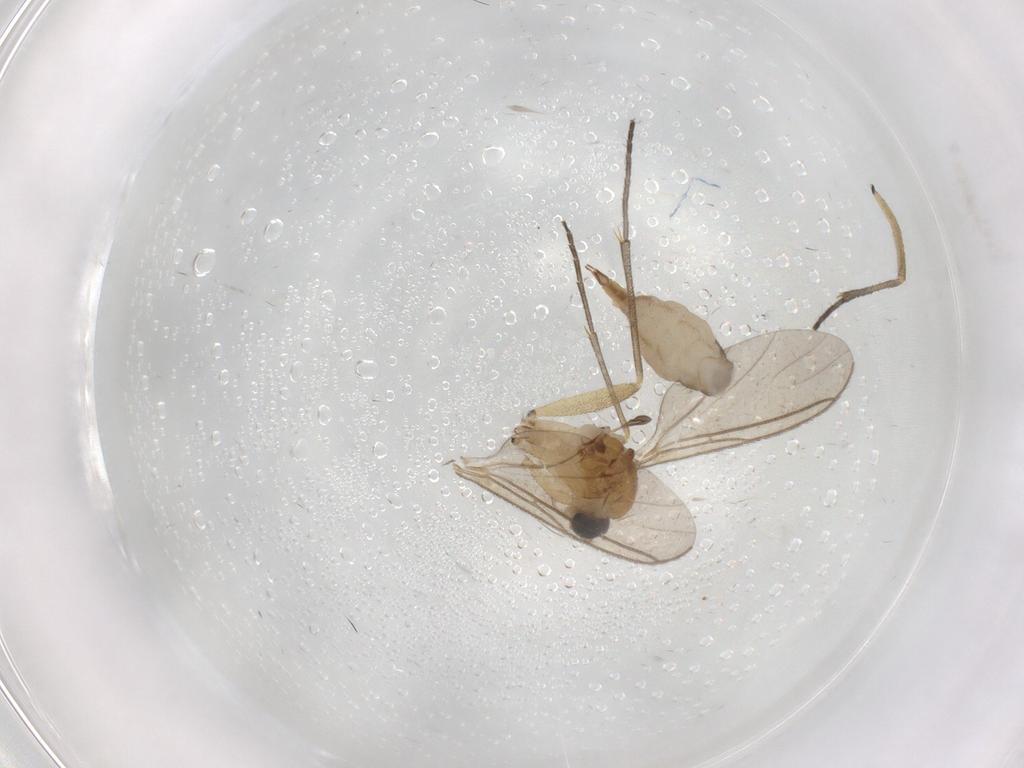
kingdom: Animalia
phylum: Arthropoda
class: Insecta
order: Diptera
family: Sciaridae
